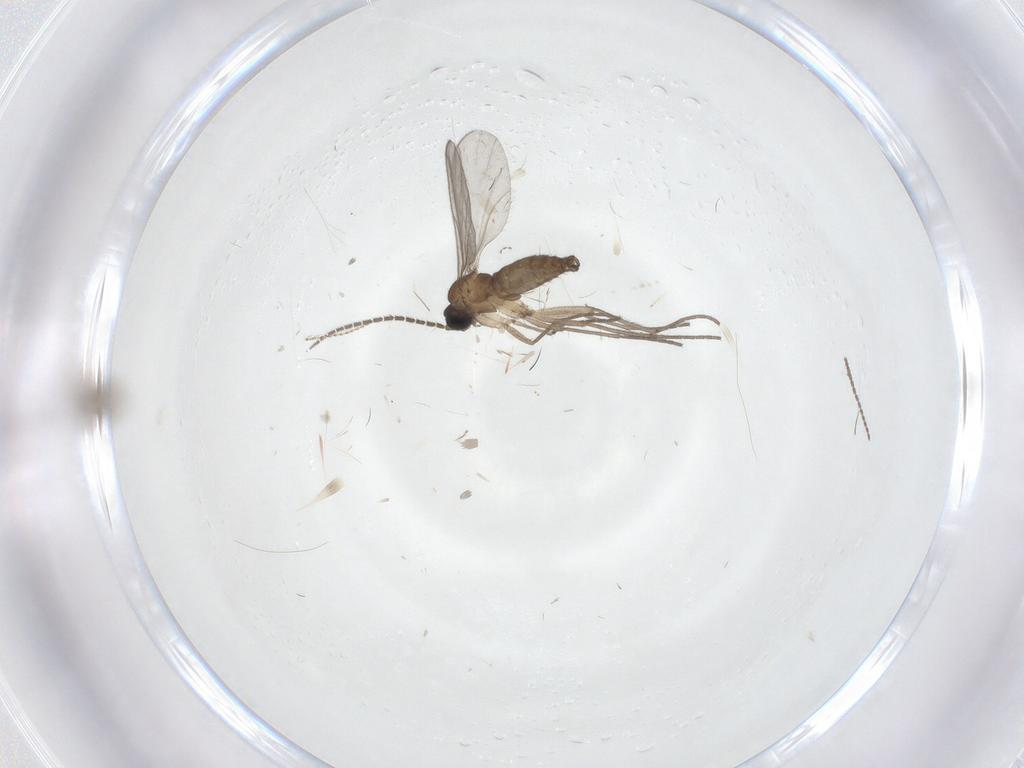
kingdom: Animalia
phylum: Arthropoda
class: Insecta
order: Diptera
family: Sciaridae
